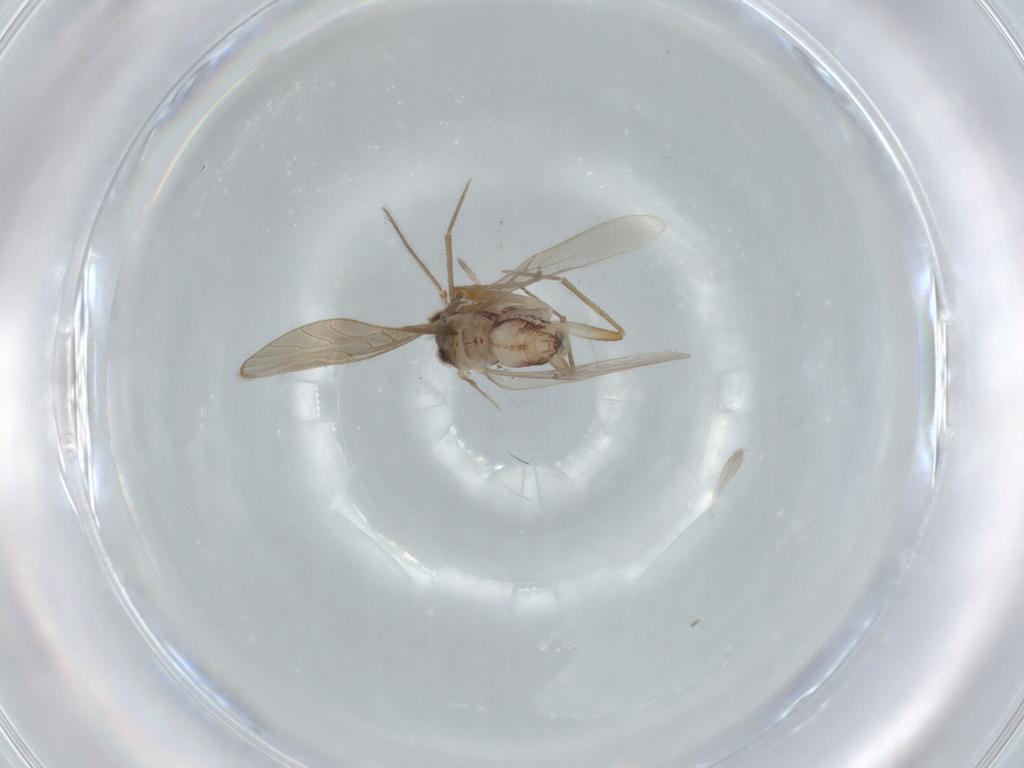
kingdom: Animalia
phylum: Arthropoda
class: Insecta
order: Psocodea
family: Mesopsocidae
